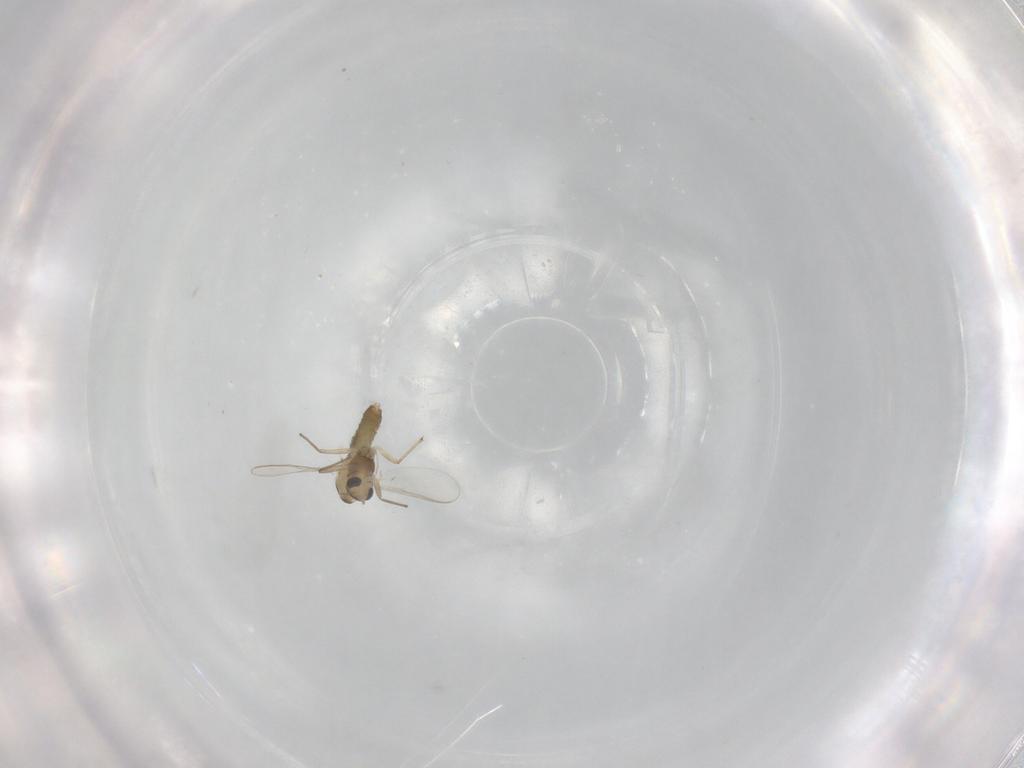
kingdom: Animalia
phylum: Arthropoda
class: Insecta
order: Diptera
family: Chironomidae
